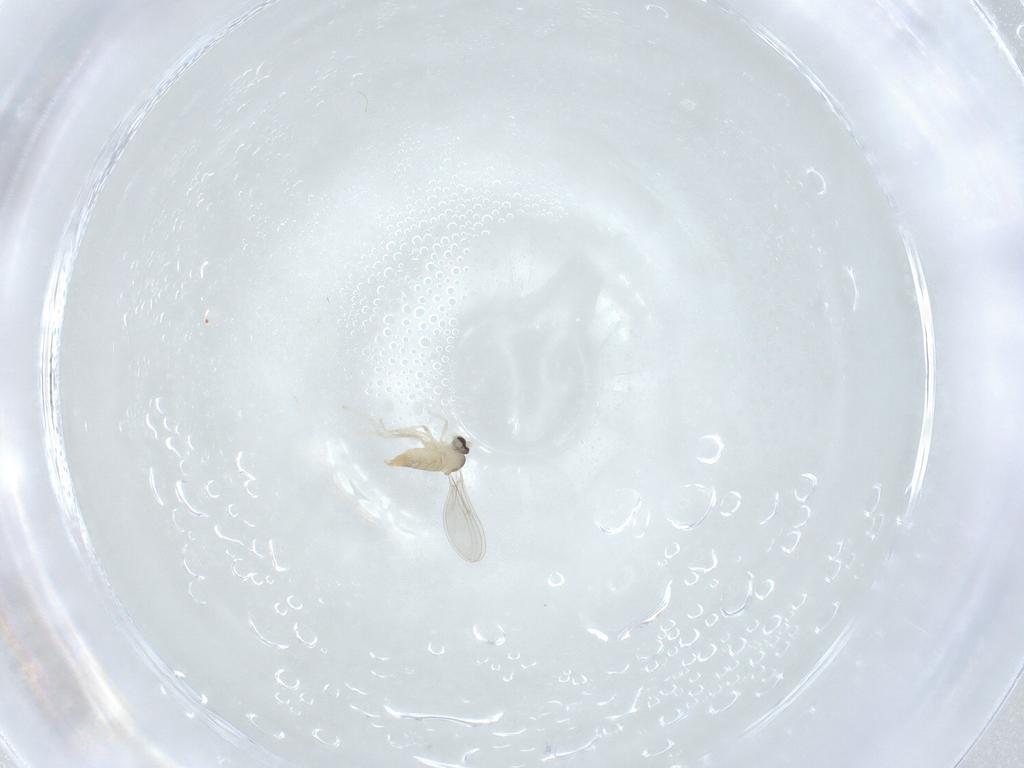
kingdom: Animalia
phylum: Arthropoda
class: Insecta
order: Diptera
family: Cecidomyiidae
